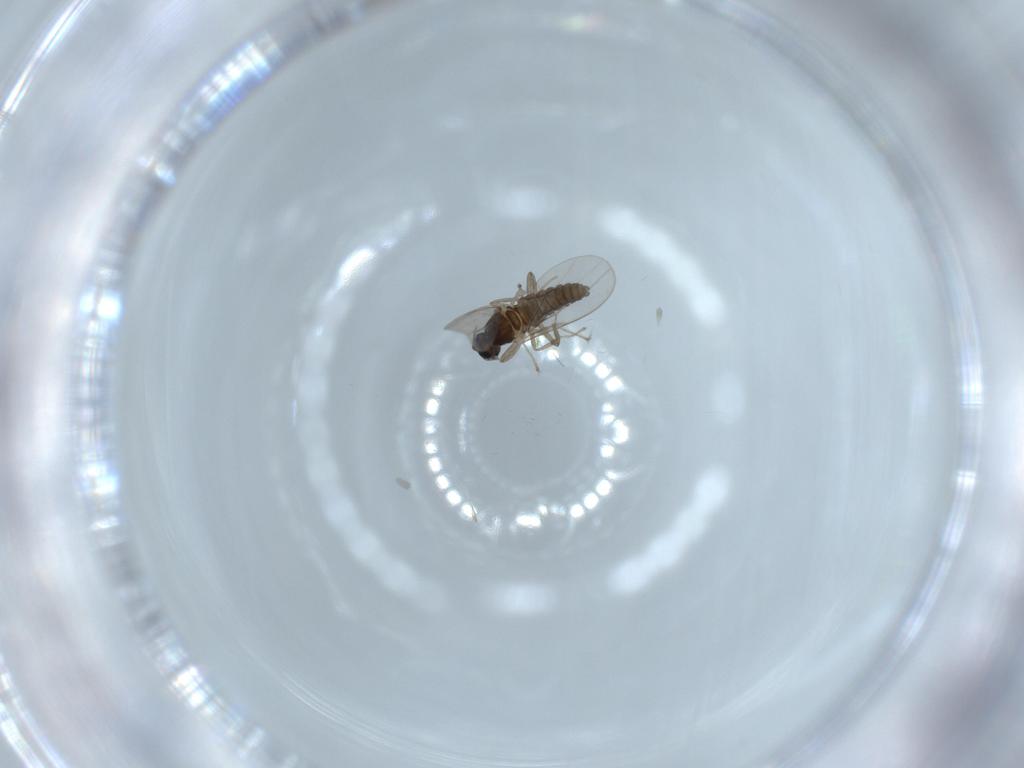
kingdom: Animalia
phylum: Arthropoda
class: Insecta
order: Diptera
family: Cecidomyiidae
